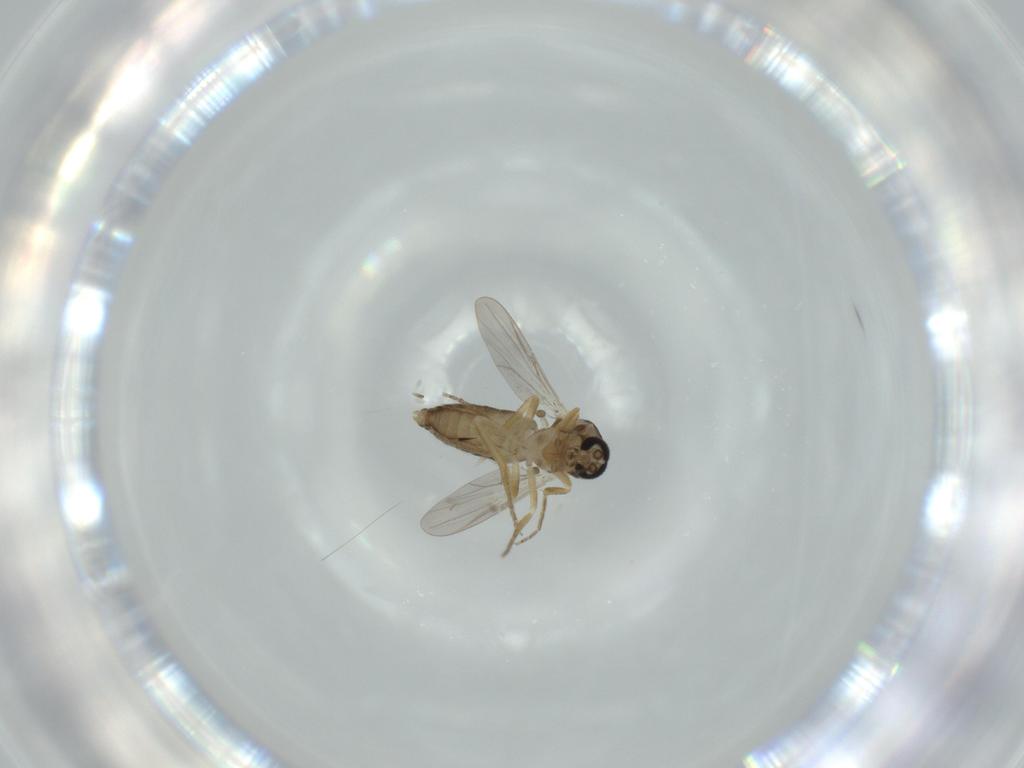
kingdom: Animalia
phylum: Arthropoda
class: Insecta
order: Diptera
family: Ceratopogonidae
